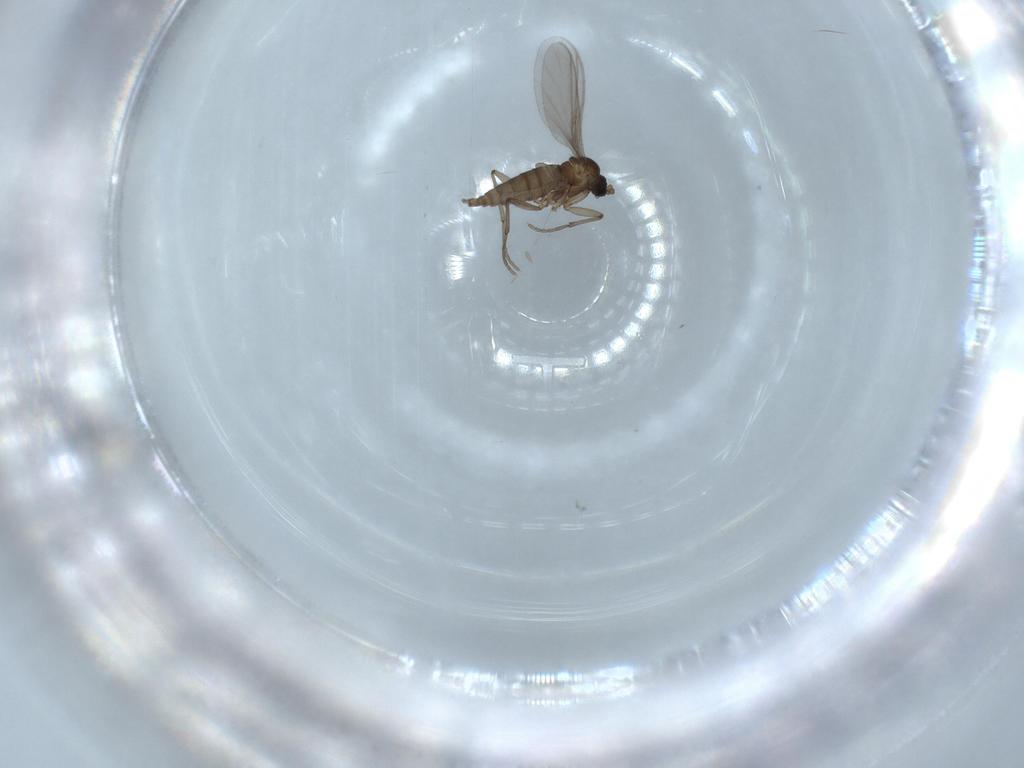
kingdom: Animalia
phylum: Arthropoda
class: Insecta
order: Diptera
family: Sciaridae
